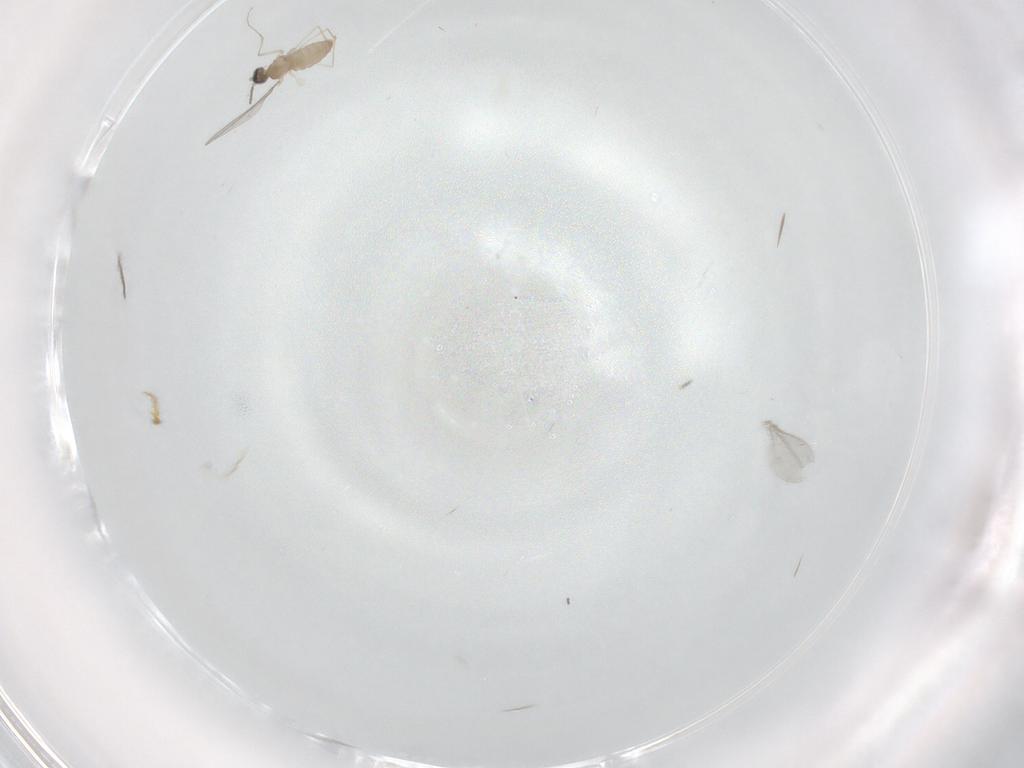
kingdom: Animalia
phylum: Arthropoda
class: Insecta
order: Diptera
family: Cecidomyiidae
